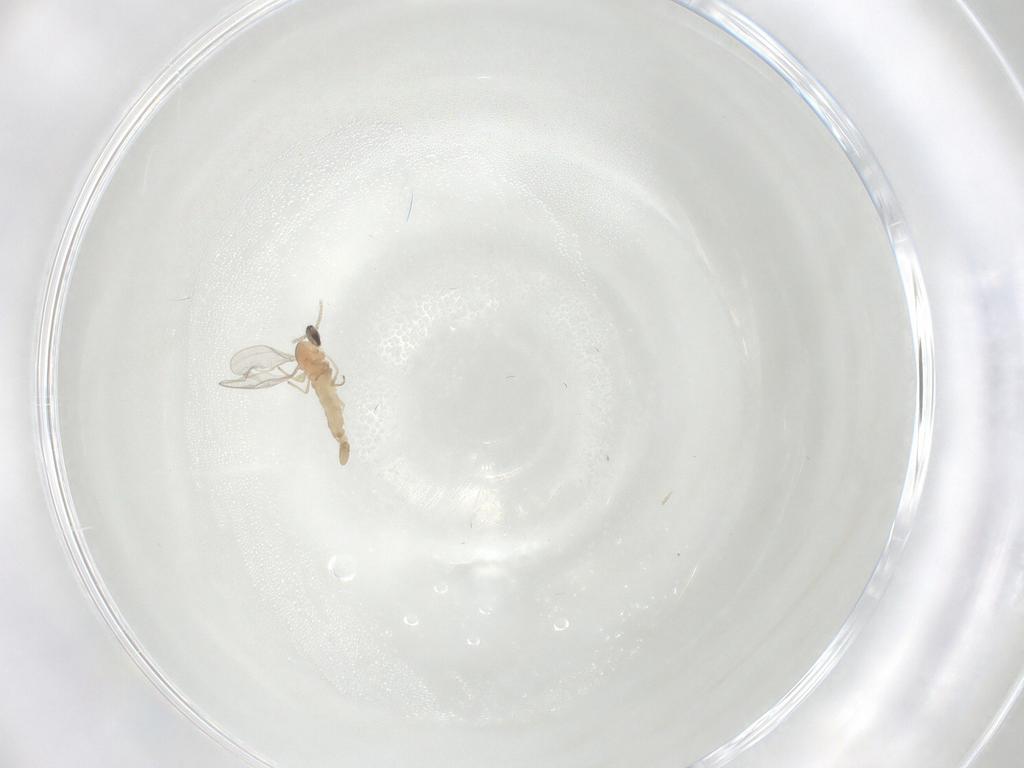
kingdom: Animalia
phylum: Arthropoda
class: Insecta
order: Diptera
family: Cecidomyiidae
